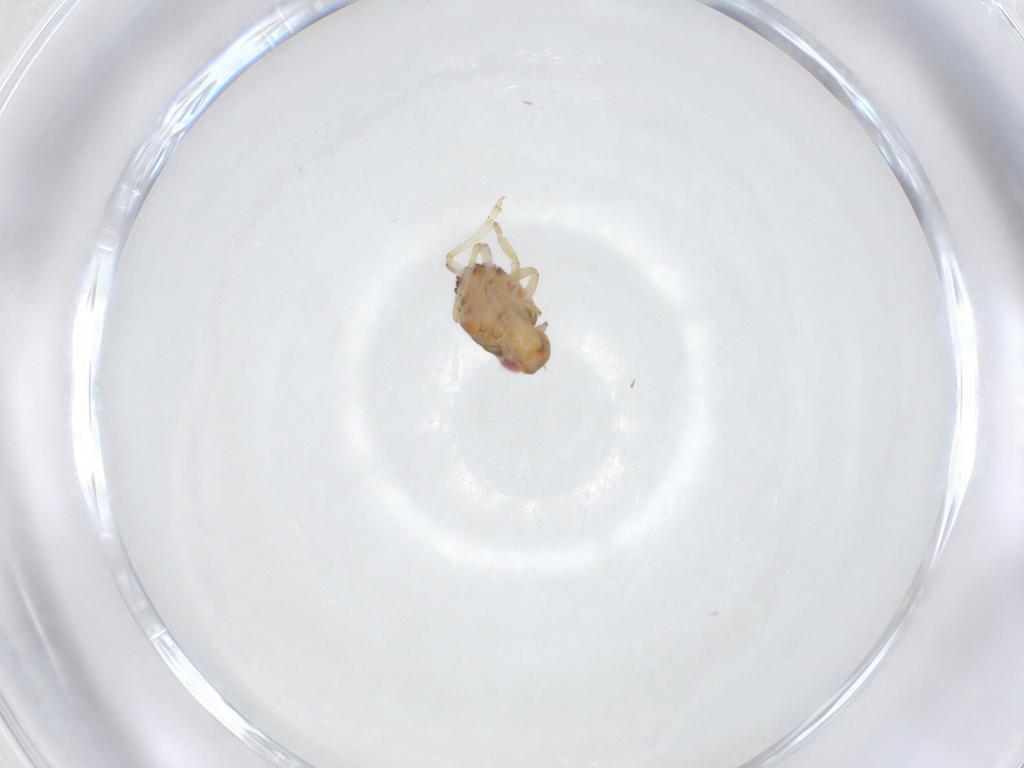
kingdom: Animalia
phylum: Arthropoda
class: Insecta
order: Hemiptera
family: Issidae
